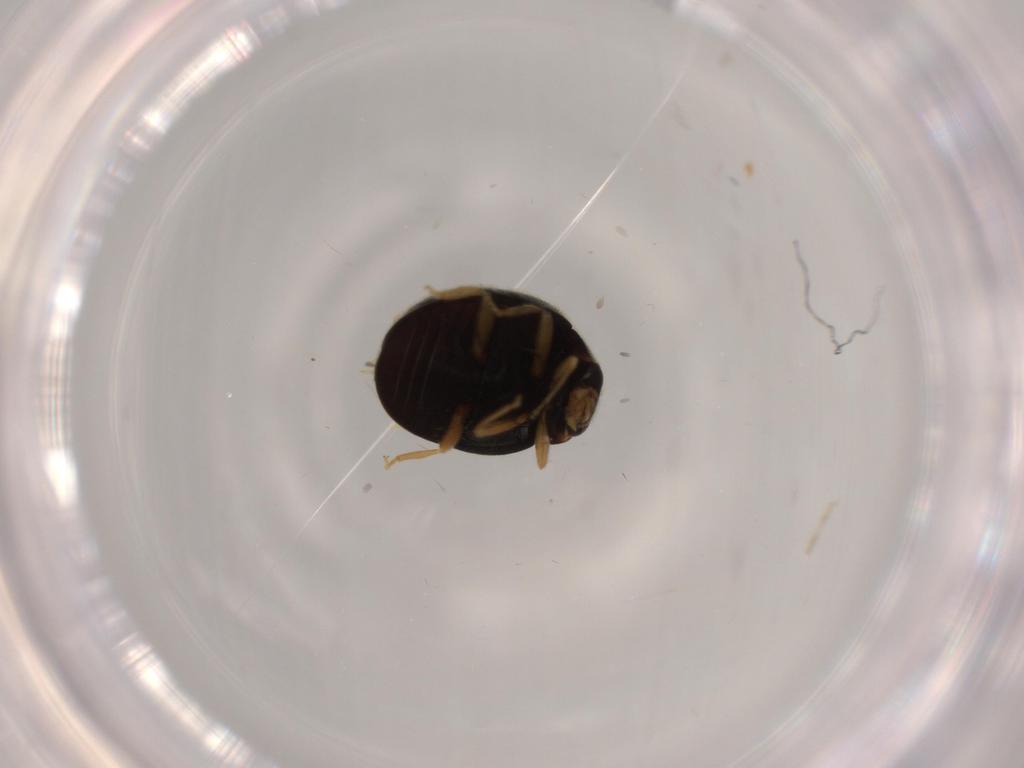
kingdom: Animalia
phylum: Arthropoda
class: Insecta
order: Coleoptera
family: Coccinellidae
